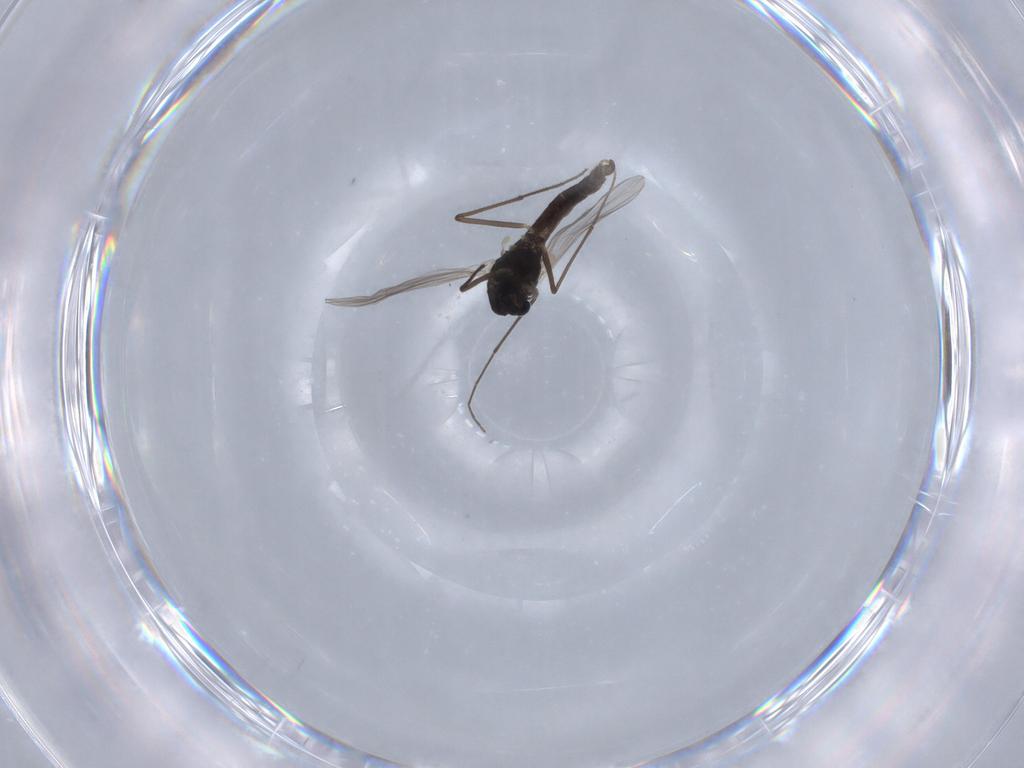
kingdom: Animalia
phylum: Arthropoda
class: Insecta
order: Diptera
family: Chironomidae
